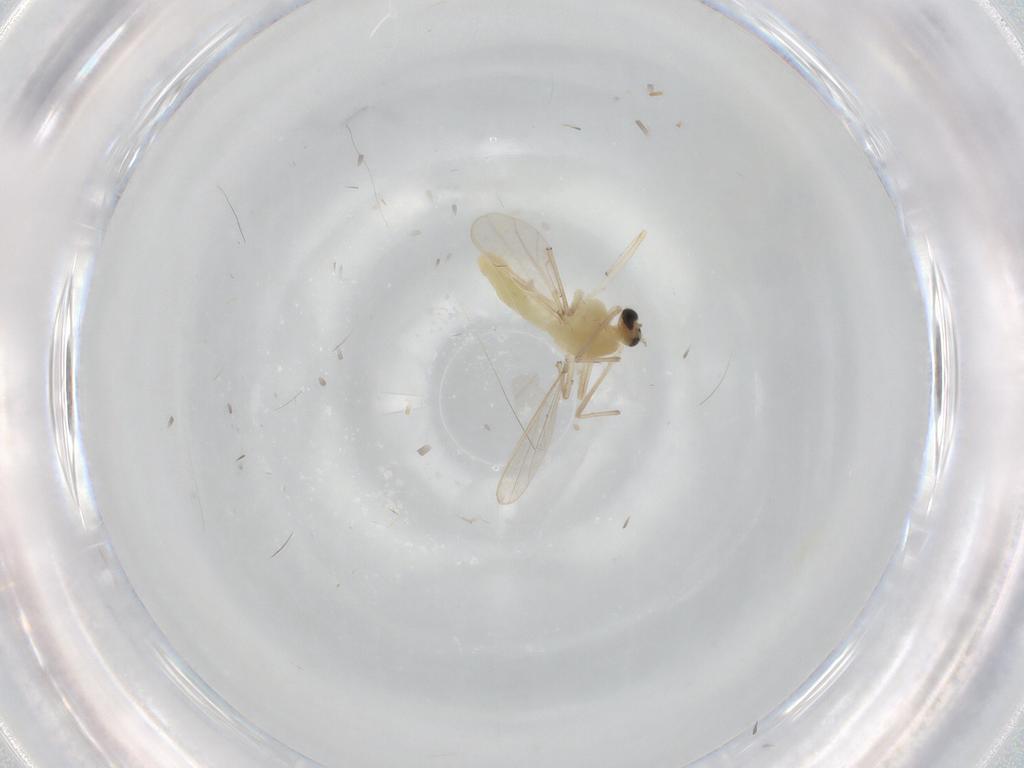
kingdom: Animalia
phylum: Arthropoda
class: Insecta
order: Diptera
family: Chironomidae
